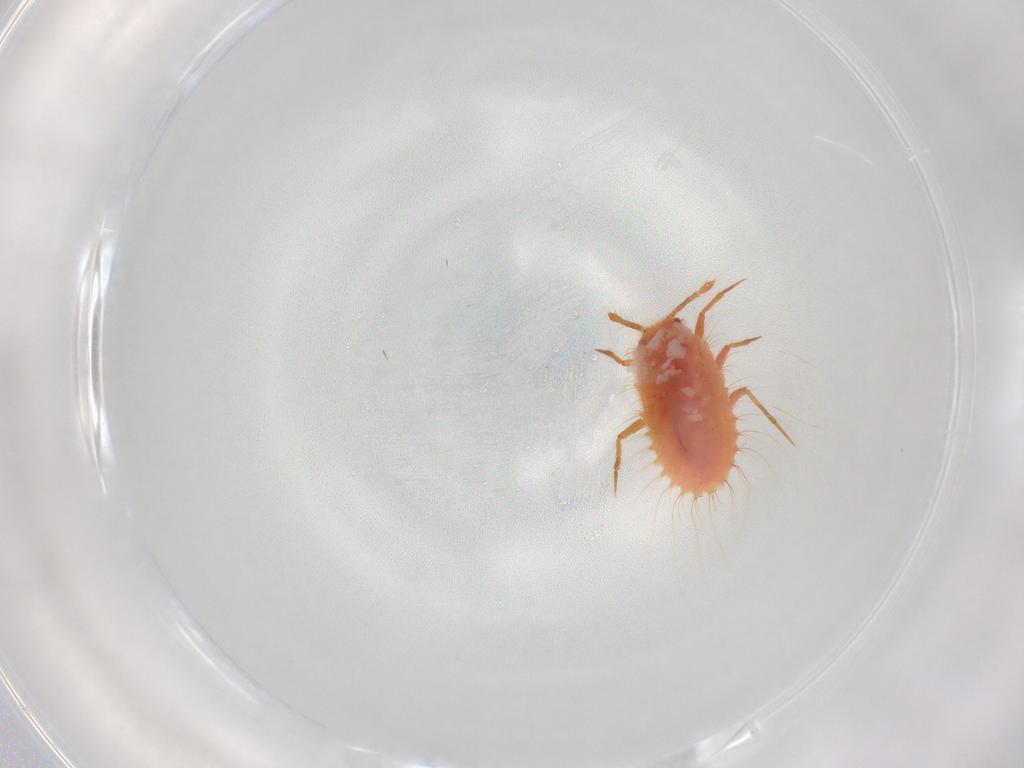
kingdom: Animalia
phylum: Arthropoda
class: Insecta
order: Hemiptera
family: Coccoidea_incertae_sedis
